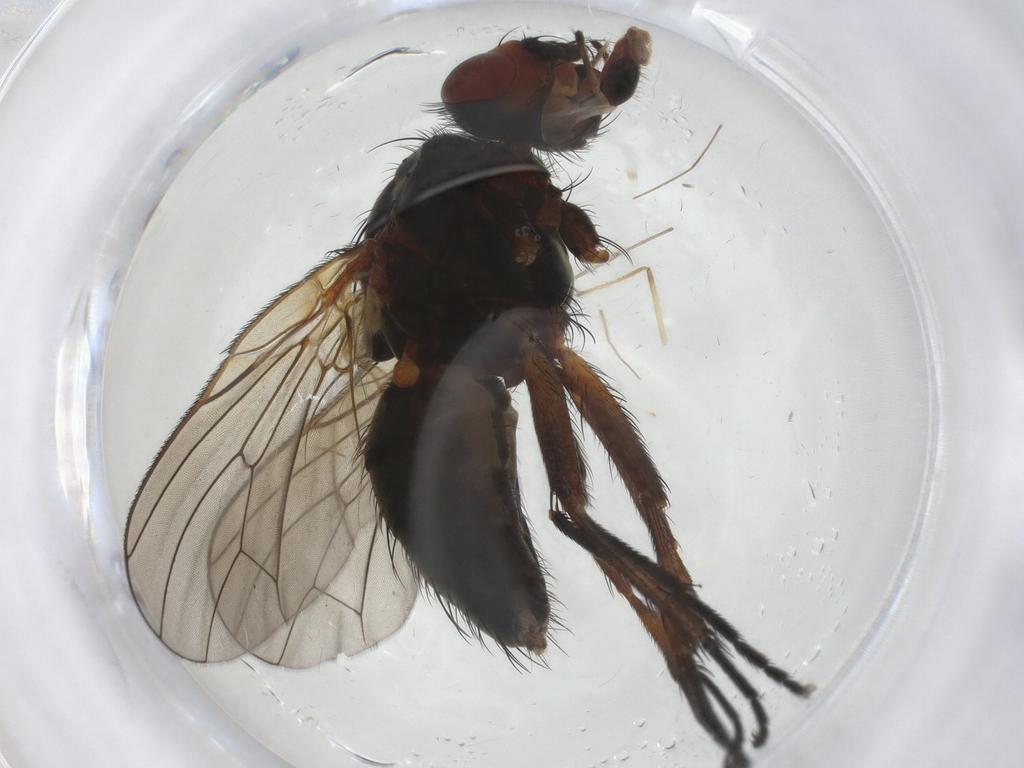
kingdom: Animalia
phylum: Arthropoda
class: Insecta
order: Diptera
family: Anthomyiidae
